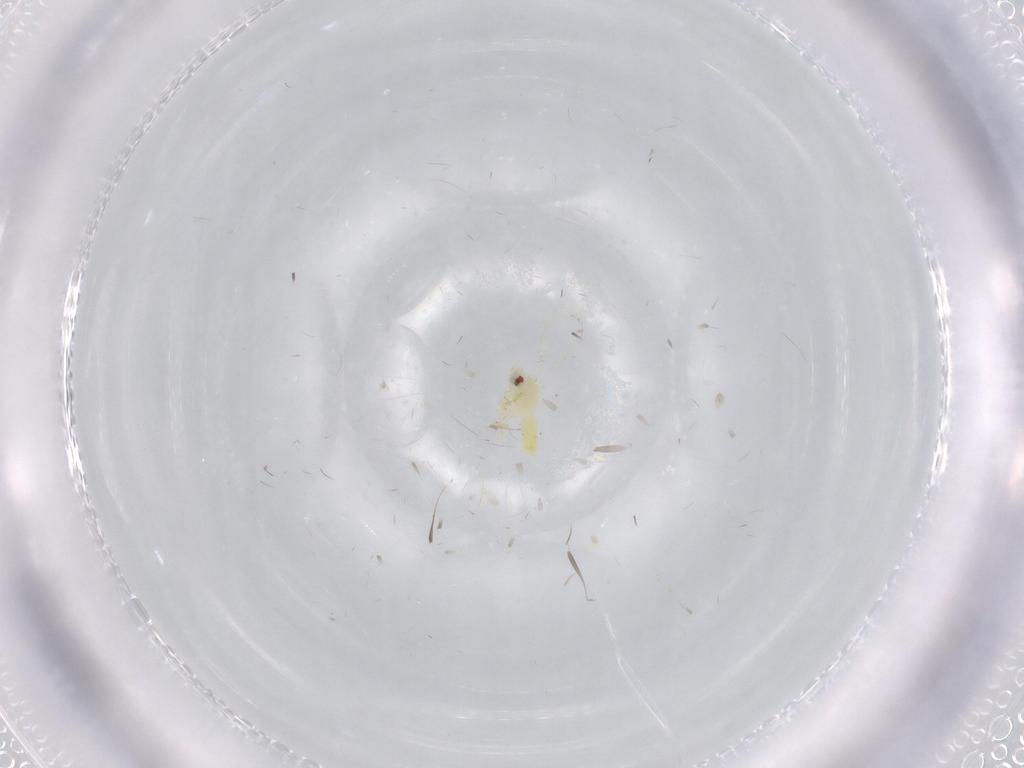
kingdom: Animalia
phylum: Arthropoda
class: Insecta
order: Hemiptera
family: Aleyrodidae
